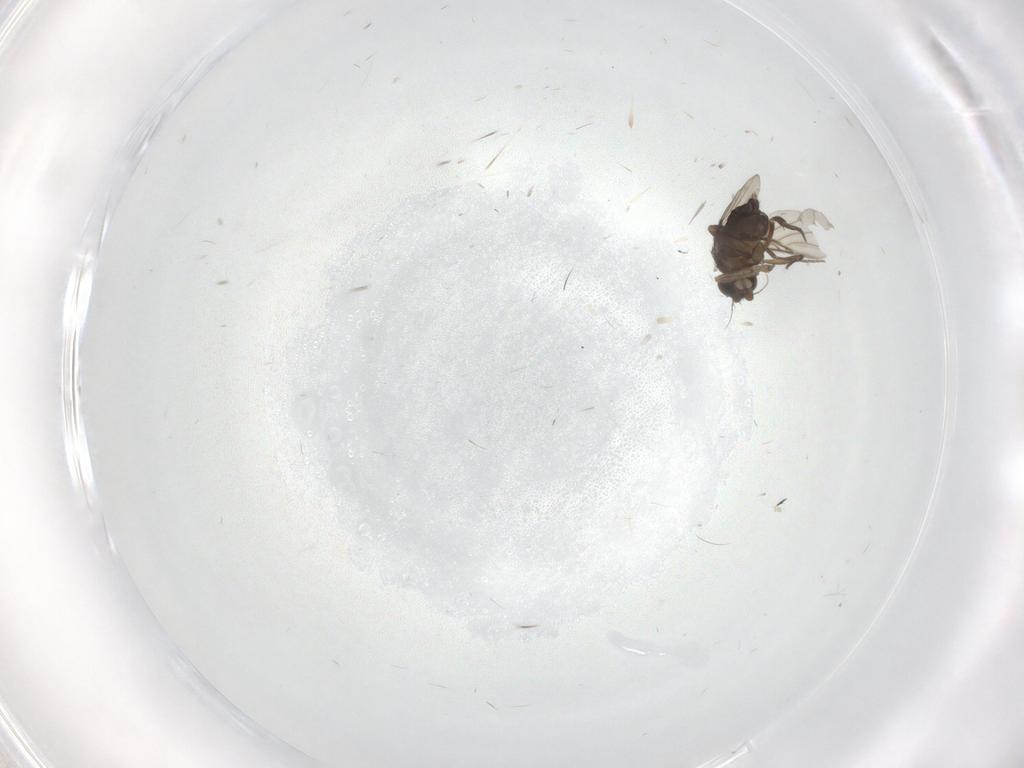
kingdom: Animalia
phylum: Arthropoda
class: Insecta
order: Diptera
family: Phoridae
